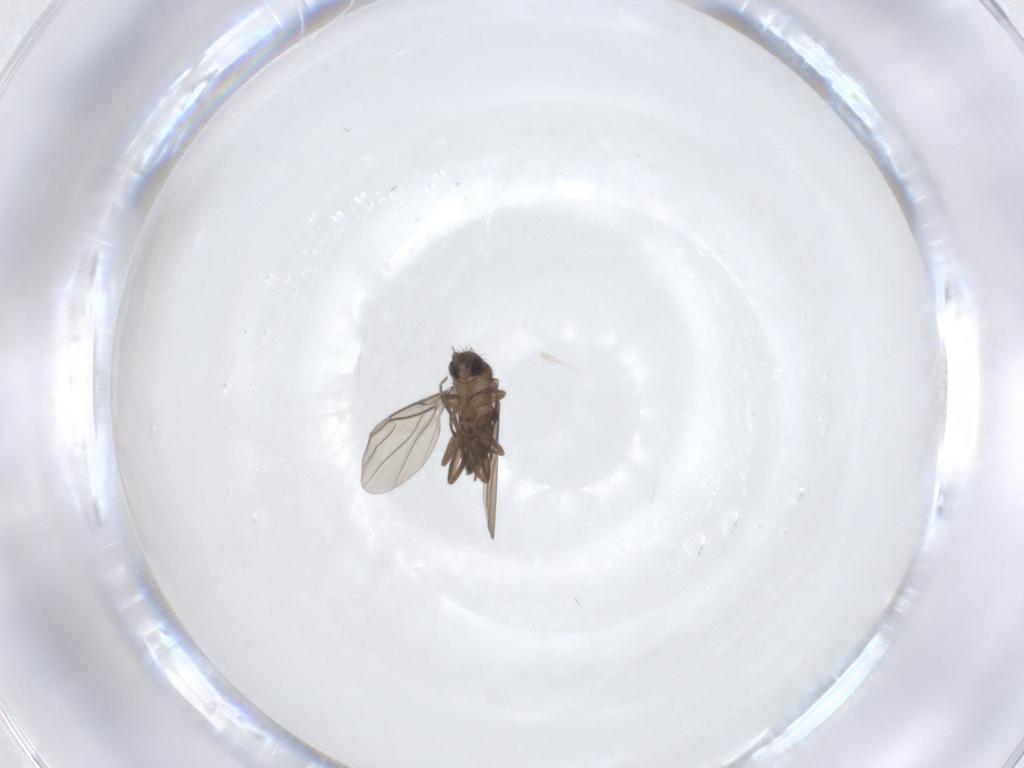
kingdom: Animalia
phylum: Arthropoda
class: Insecta
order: Diptera
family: Phoridae
